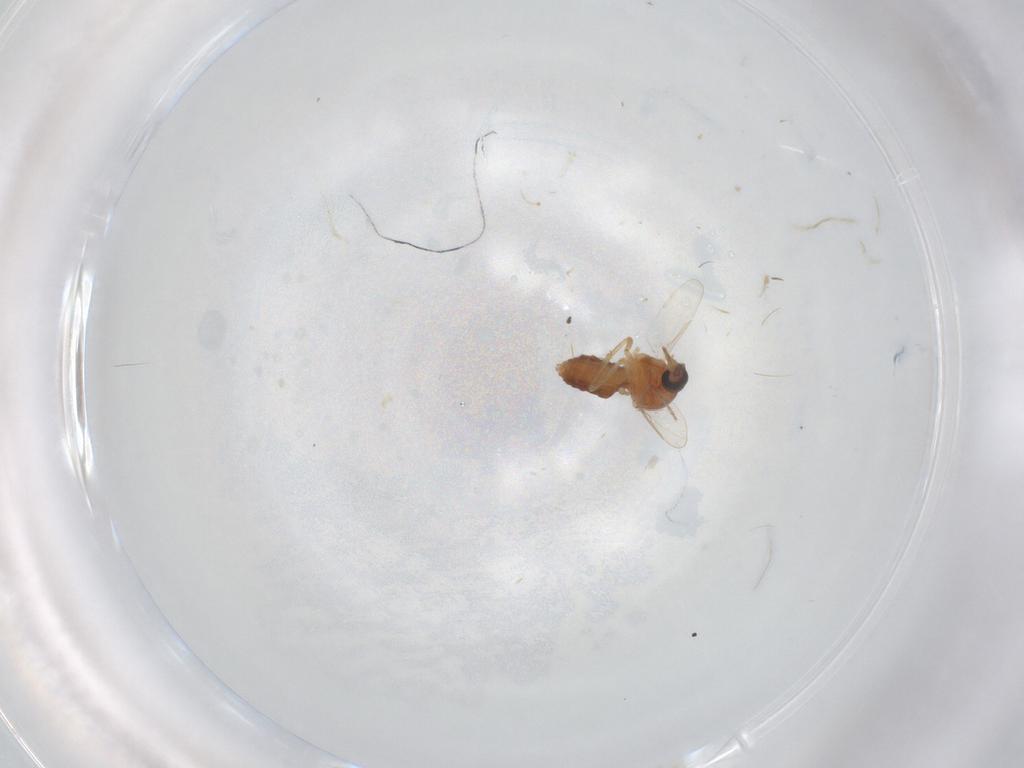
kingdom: Animalia
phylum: Arthropoda
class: Insecta
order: Diptera
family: Ceratopogonidae
